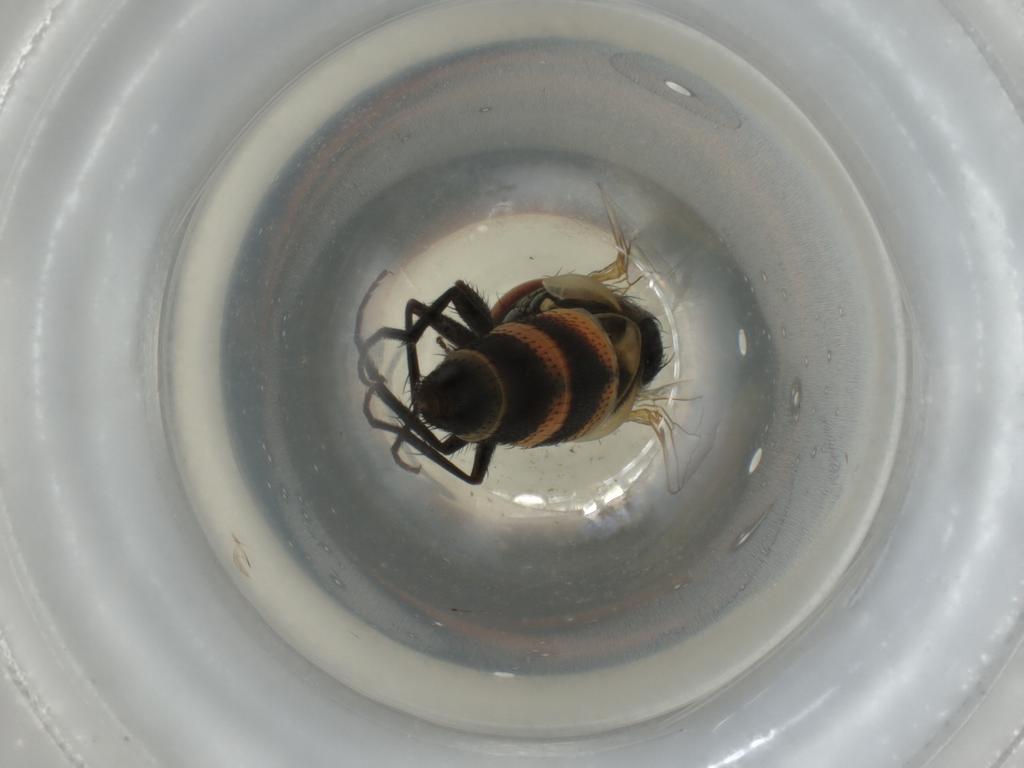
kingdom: Animalia
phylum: Arthropoda
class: Insecta
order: Diptera
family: Sarcophagidae
